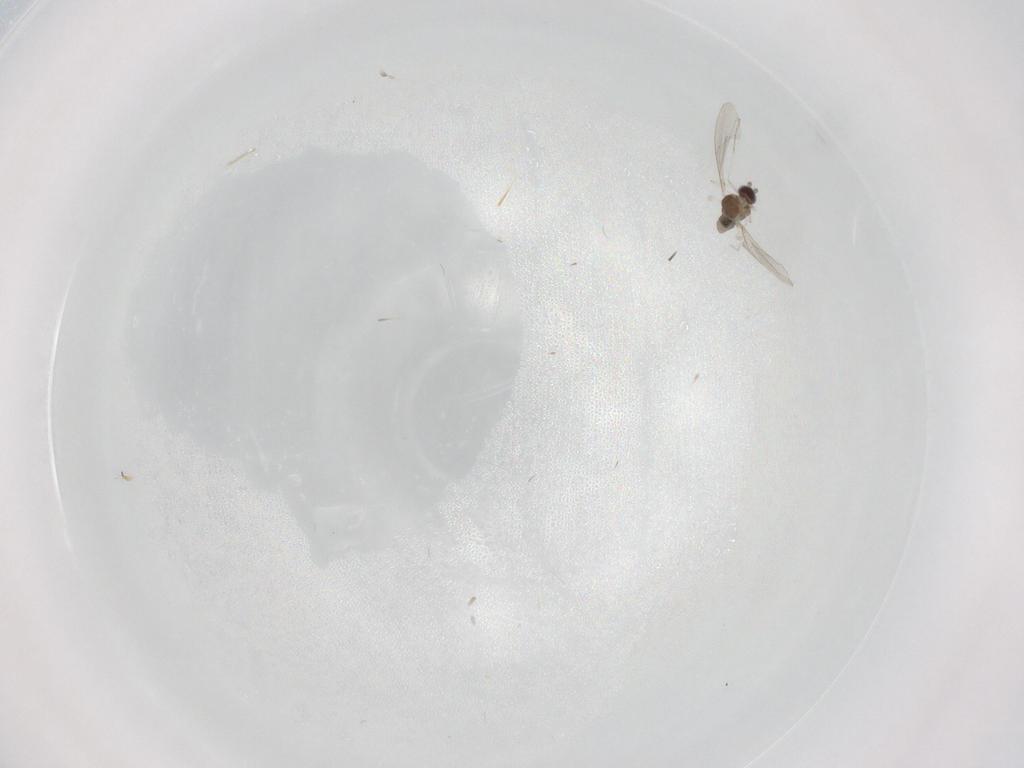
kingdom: Animalia
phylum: Arthropoda
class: Insecta
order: Diptera
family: Cecidomyiidae
